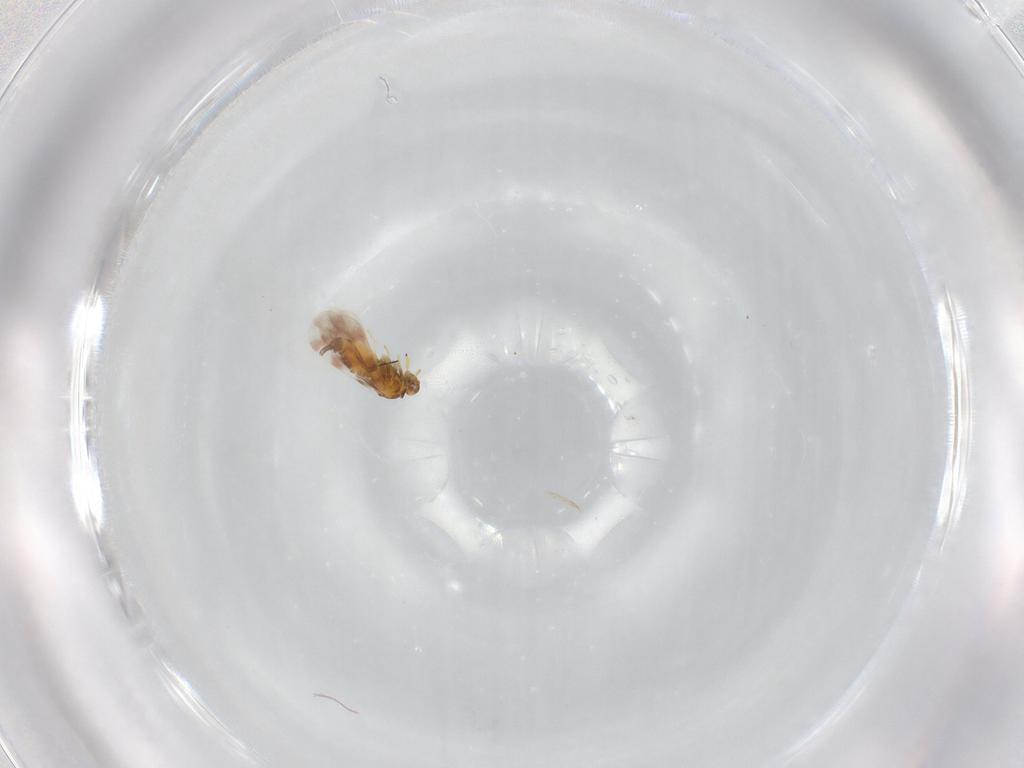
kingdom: Animalia
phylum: Arthropoda
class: Insecta
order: Hemiptera
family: Aleyrodidae
